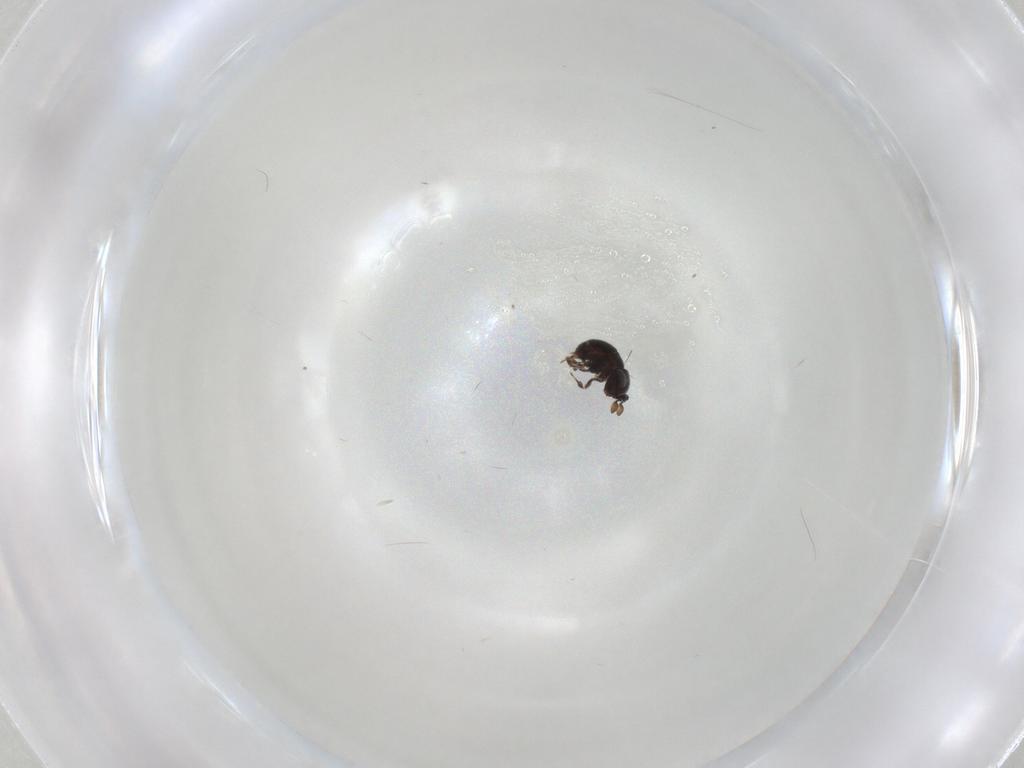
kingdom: Animalia
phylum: Arthropoda
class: Insecta
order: Hymenoptera
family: Scelionidae
